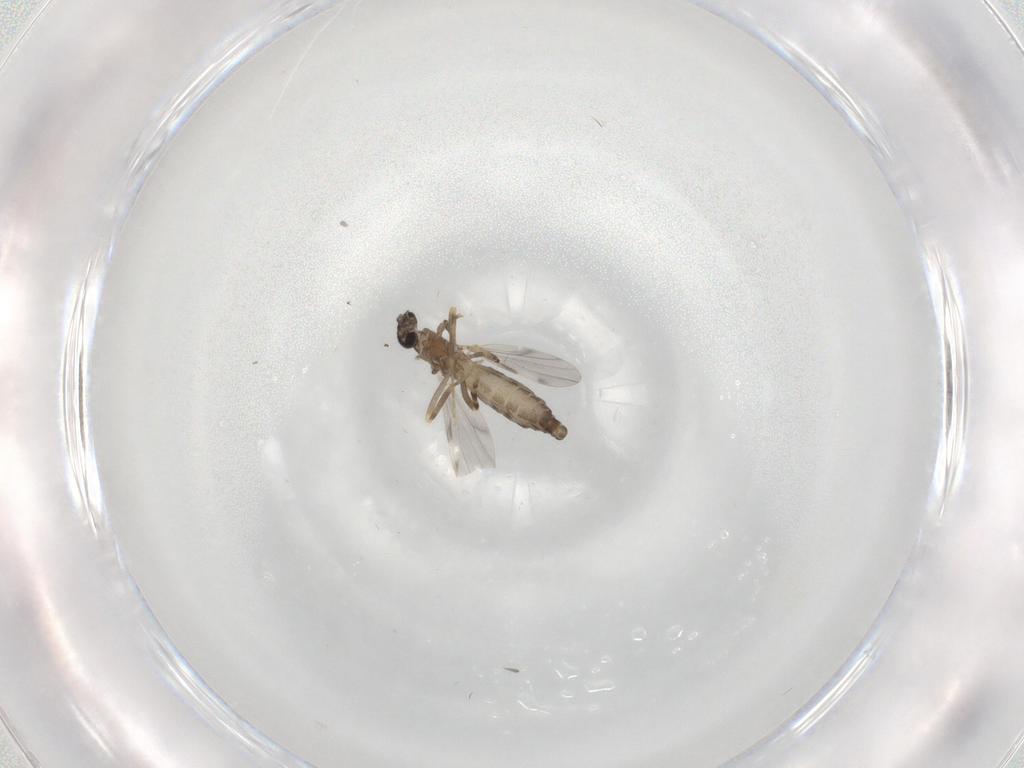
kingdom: Animalia
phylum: Arthropoda
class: Insecta
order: Diptera
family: Ceratopogonidae
